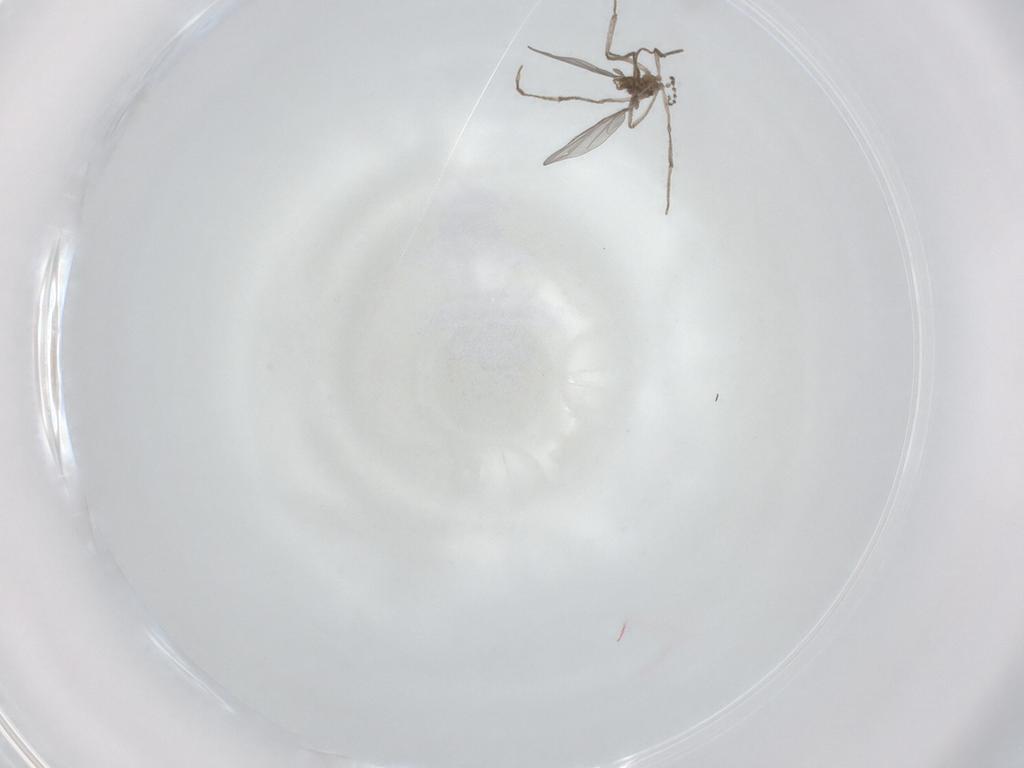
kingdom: Animalia
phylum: Arthropoda
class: Insecta
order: Diptera
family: Cecidomyiidae
